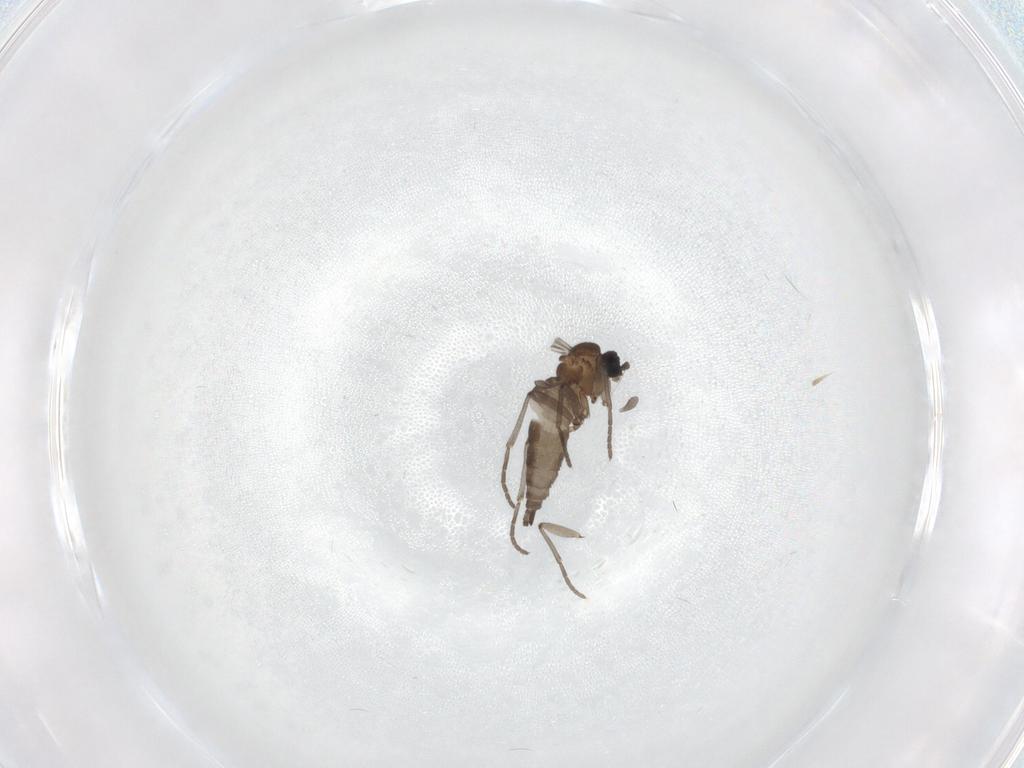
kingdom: Animalia
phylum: Arthropoda
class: Insecta
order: Diptera
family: Sciaridae
